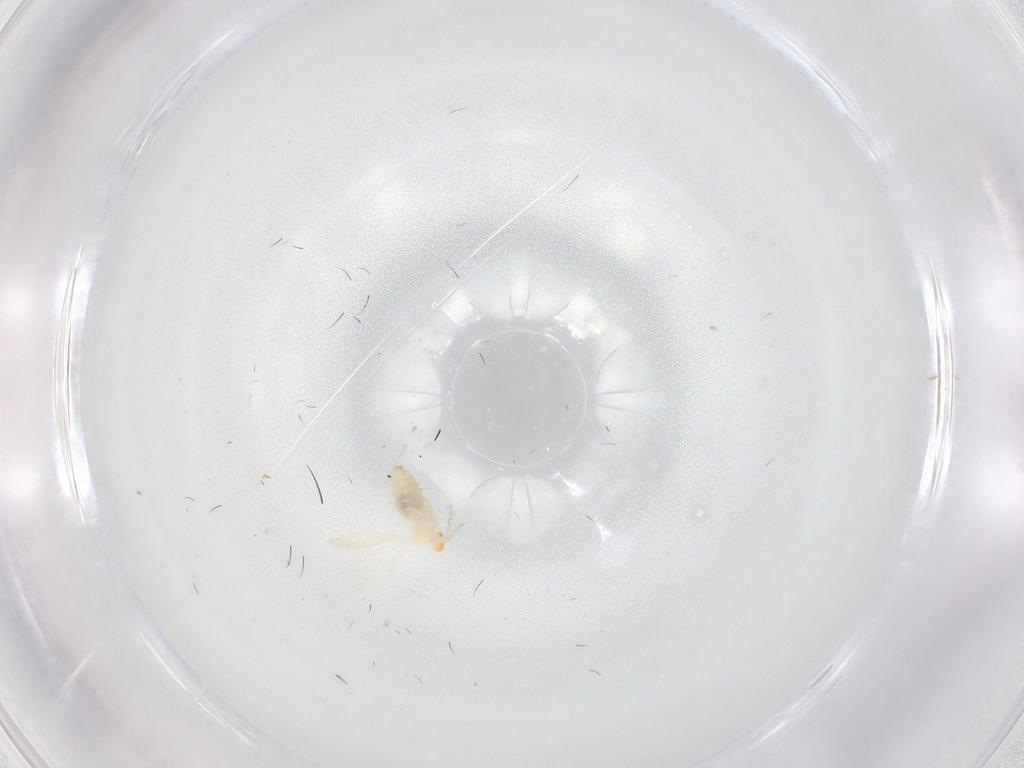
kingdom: Animalia
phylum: Arthropoda
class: Insecta
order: Diptera
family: Cecidomyiidae
